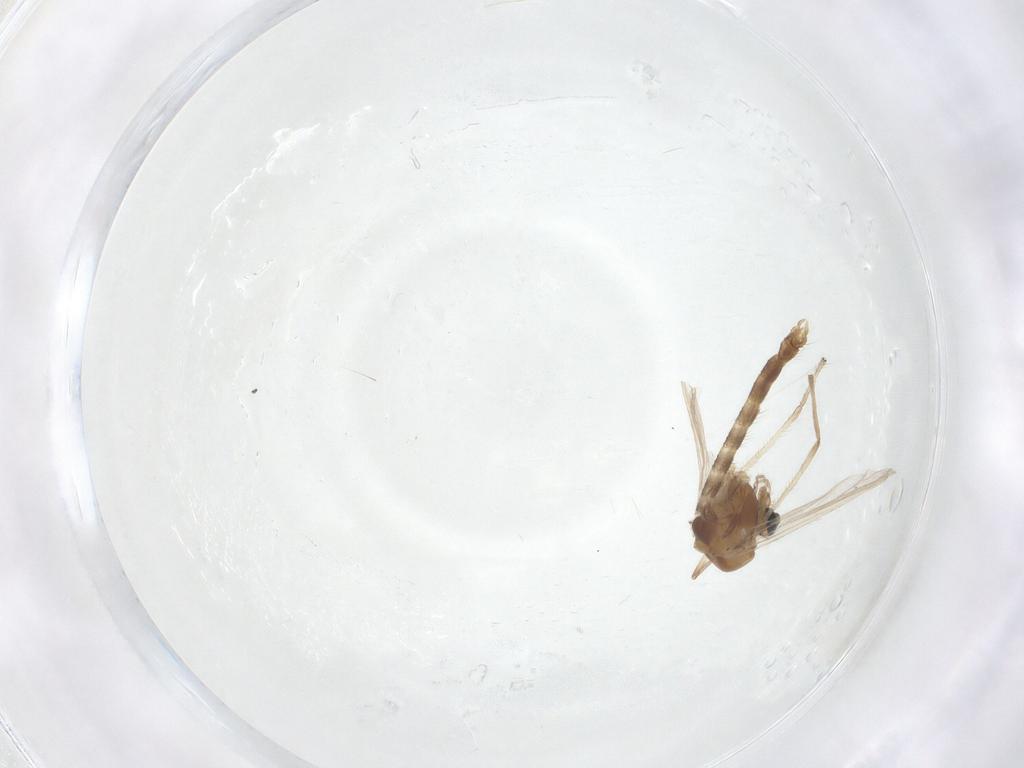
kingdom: Animalia
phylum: Arthropoda
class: Insecta
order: Diptera
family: Chironomidae
